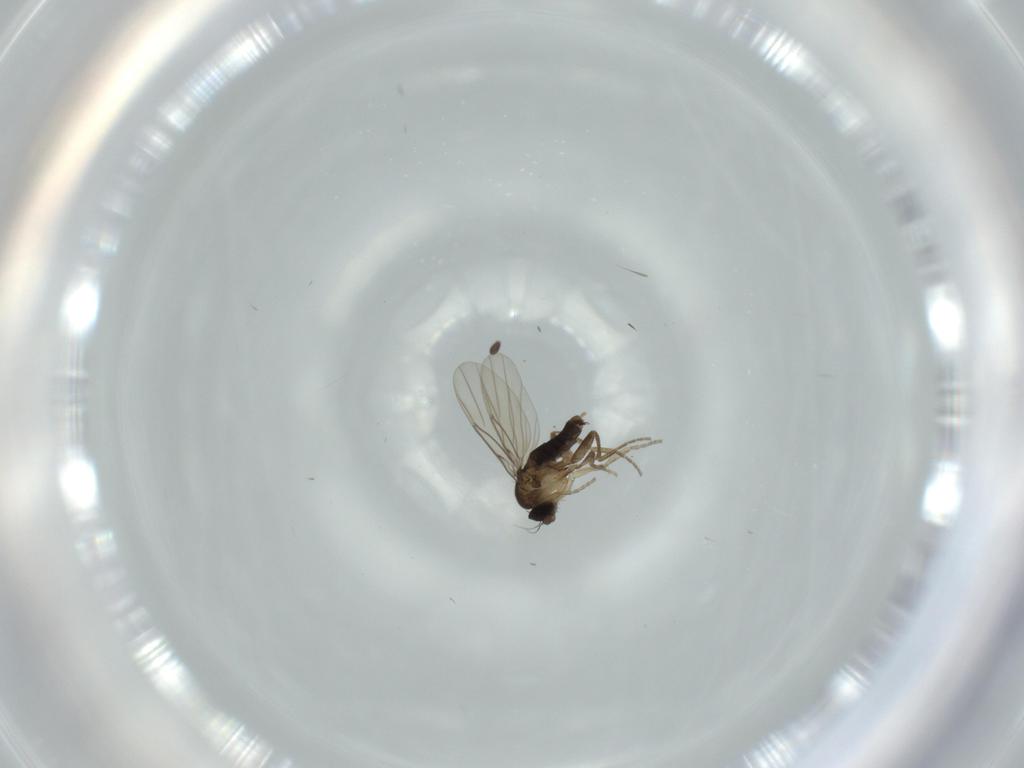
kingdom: Animalia
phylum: Arthropoda
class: Insecta
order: Diptera
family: Phoridae
